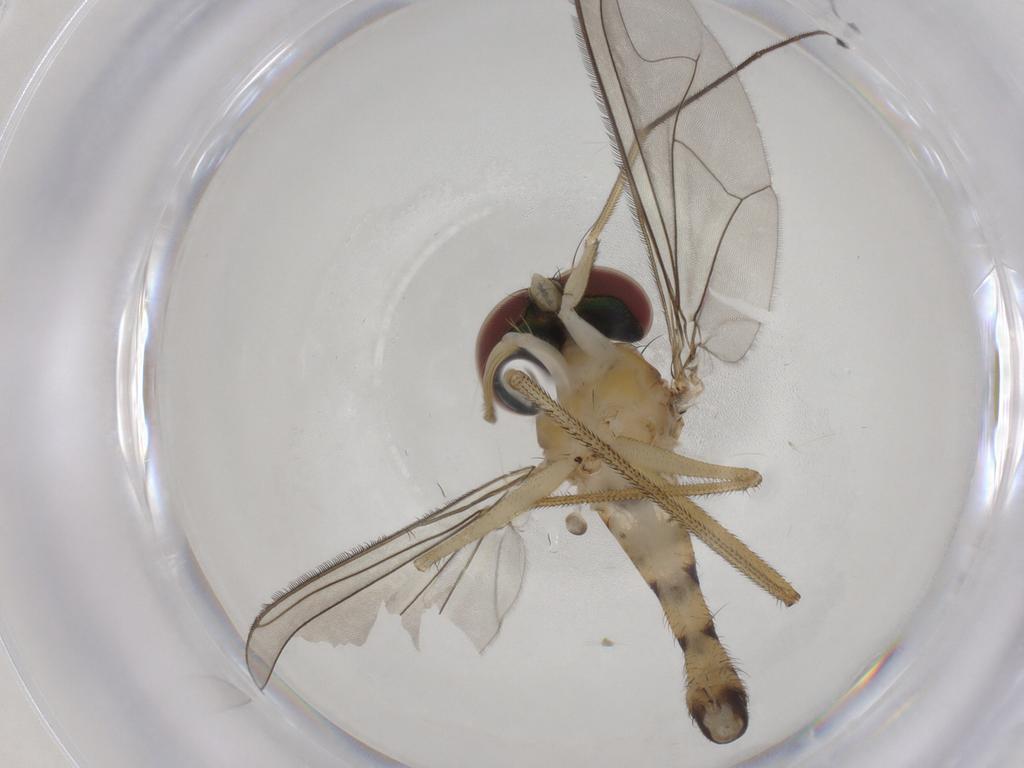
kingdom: Animalia
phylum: Arthropoda
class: Insecta
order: Diptera
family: Dolichopodidae
